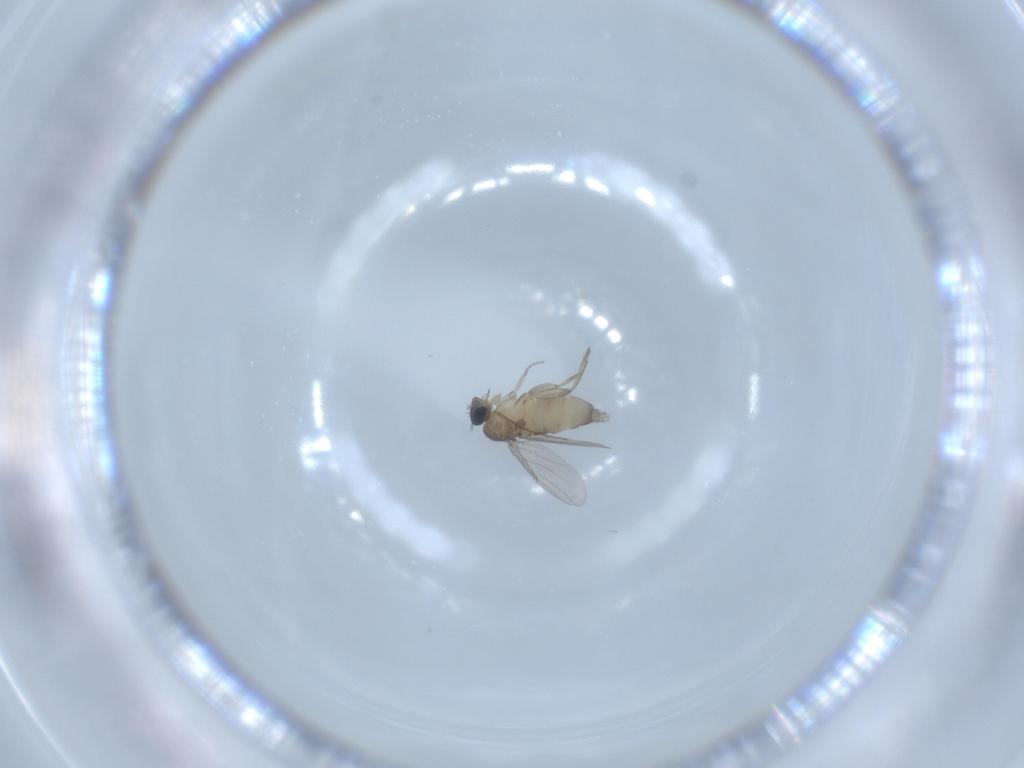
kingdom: Animalia
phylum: Arthropoda
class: Insecta
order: Diptera
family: Phoridae
